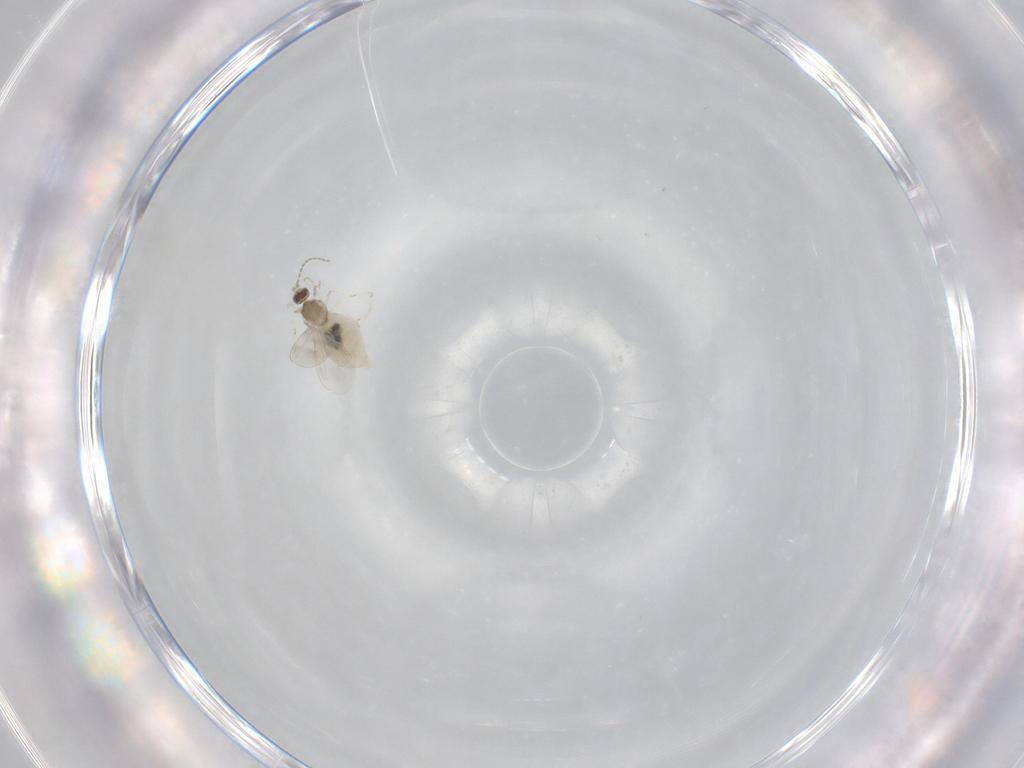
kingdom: Animalia
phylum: Arthropoda
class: Insecta
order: Diptera
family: Cecidomyiidae
